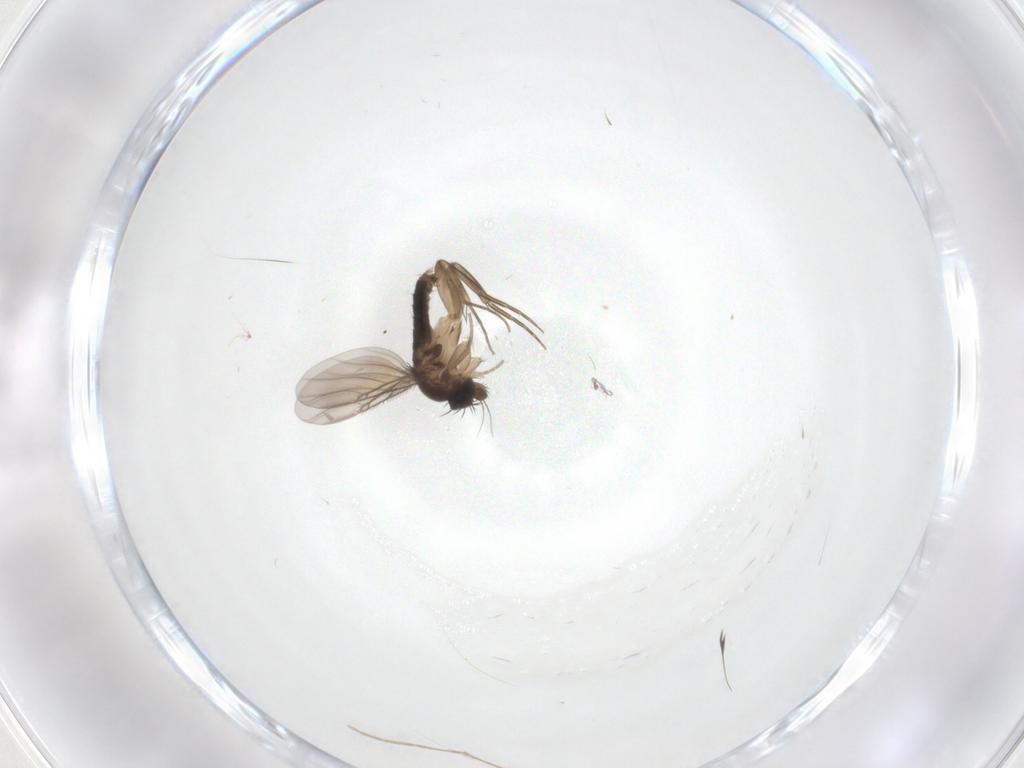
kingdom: Animalia
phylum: Arthropoda
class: Insecta
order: Diptera
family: Phoridae
